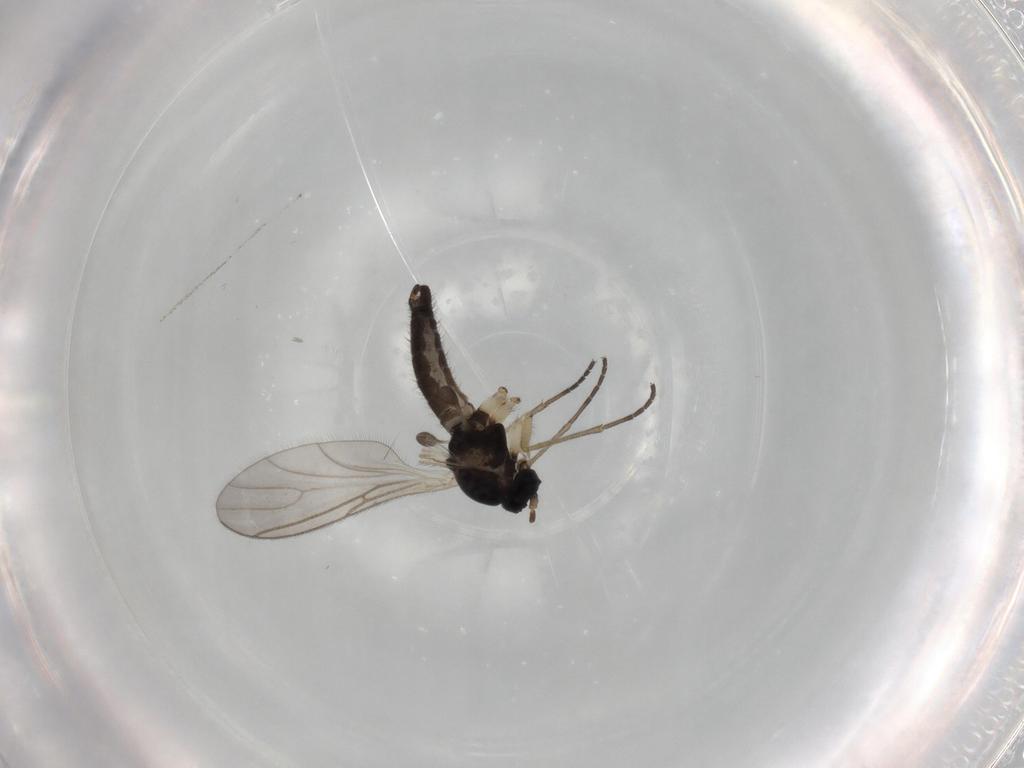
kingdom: Animalia
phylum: Arthropoda
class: Insecta
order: Diptera
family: Sciaridae
